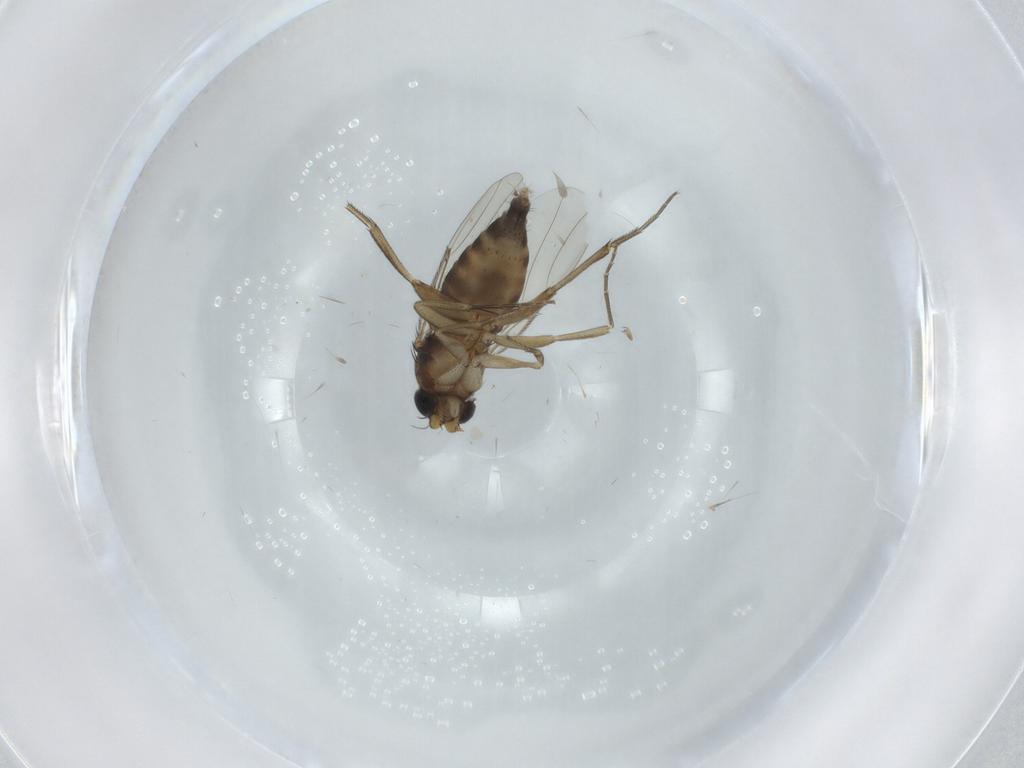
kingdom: Animalia
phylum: Arthropoda
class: Insecta
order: Diptera
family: Phoridae
